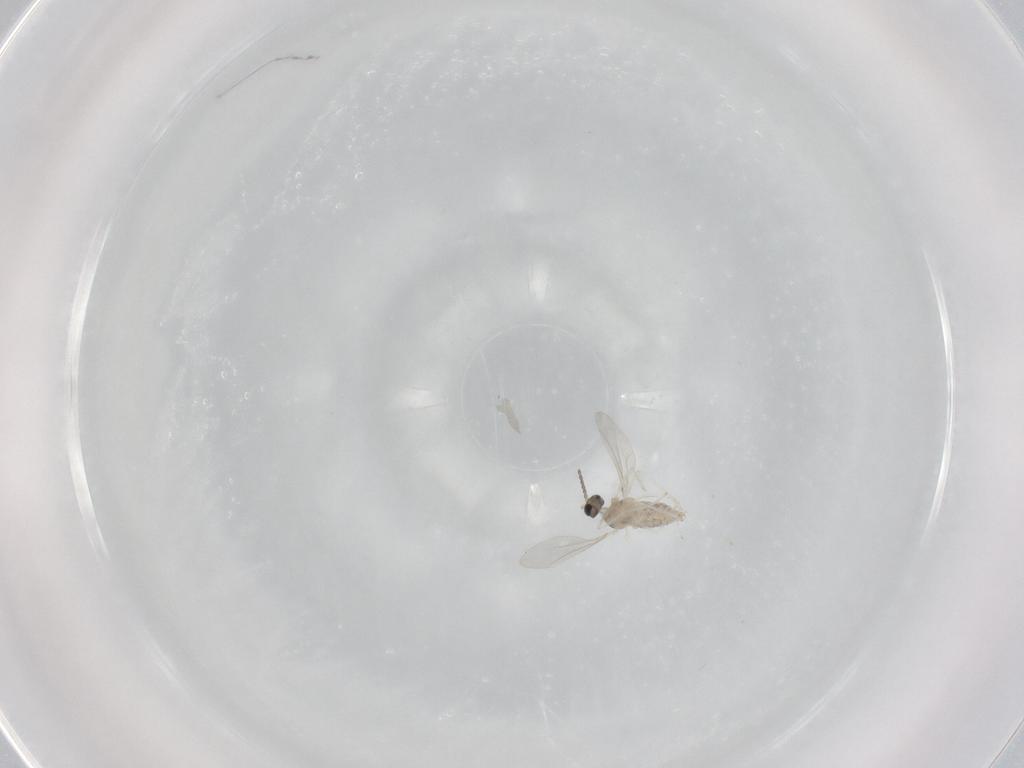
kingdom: Animalia
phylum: Arthropoda
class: Insecta
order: Diptera
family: Cecidomyiidae
